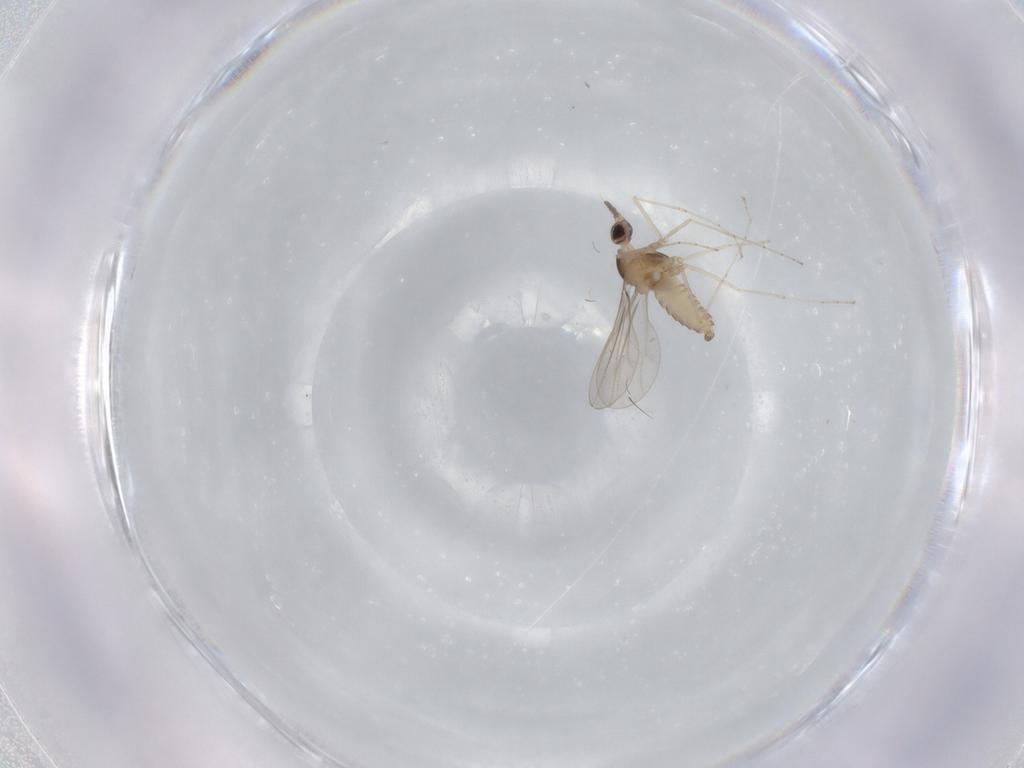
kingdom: Animalia
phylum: Arthropoda
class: Insecta
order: Diptera
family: Cecidomyiidae
